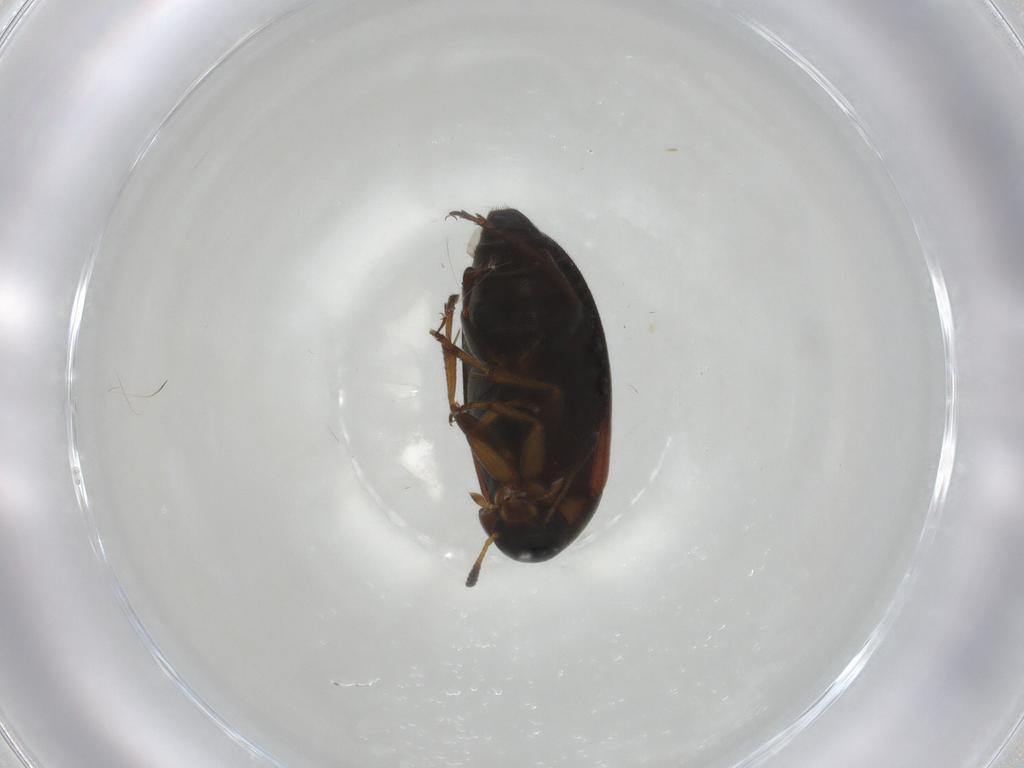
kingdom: Animalia
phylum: Arthropoda
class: Insecta
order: Coleoptera
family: Scraptiidae
